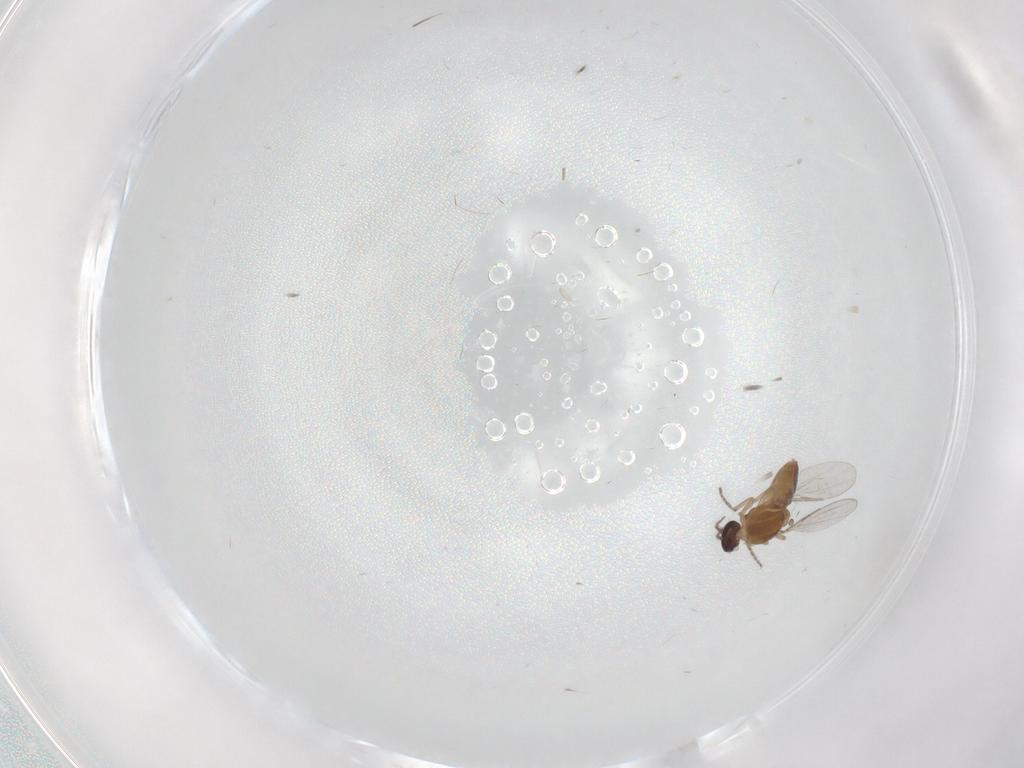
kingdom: Animalia
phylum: Arthropoda
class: Insecta
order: Diptera
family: Ceratopogonidae
